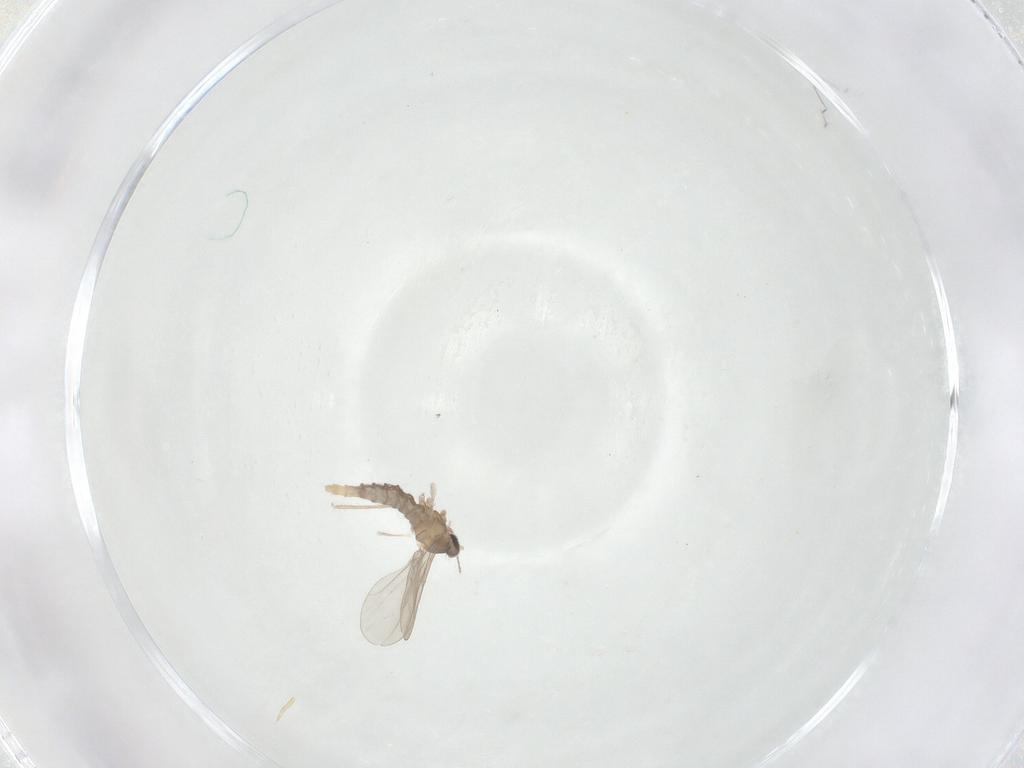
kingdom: Animalia
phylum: Arthropoda
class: Insecta
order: Diptera
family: Cecidomyiidae
